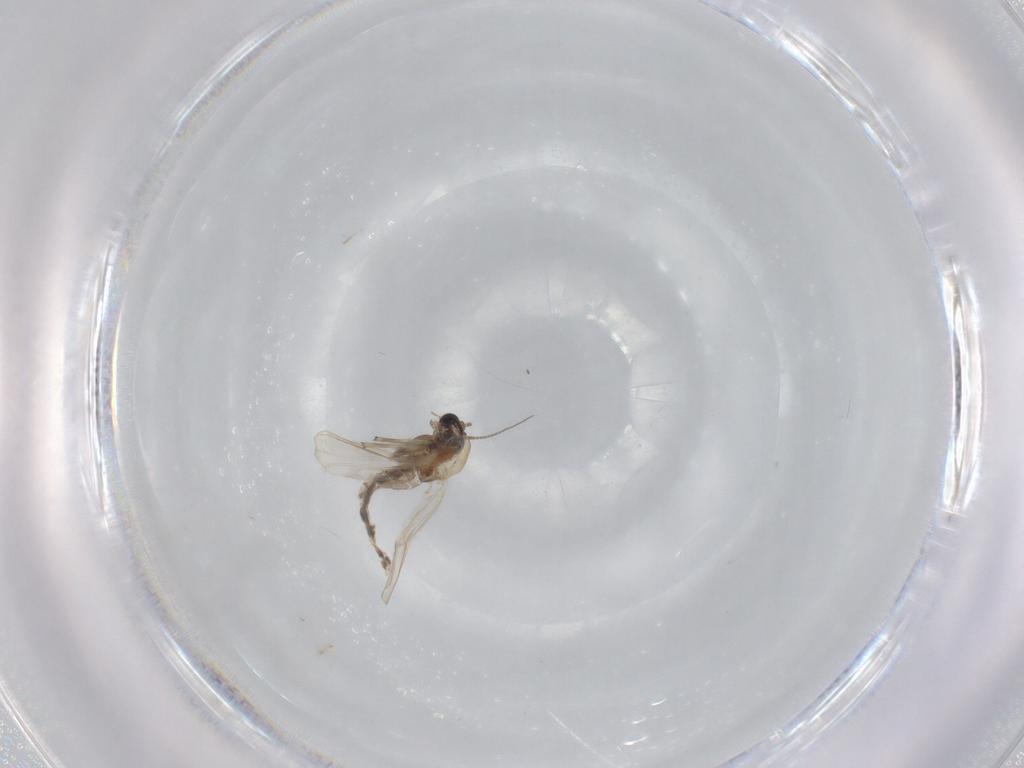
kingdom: Animalia
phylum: Arthropoda
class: Insecta
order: Diptera
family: Chironomidae
